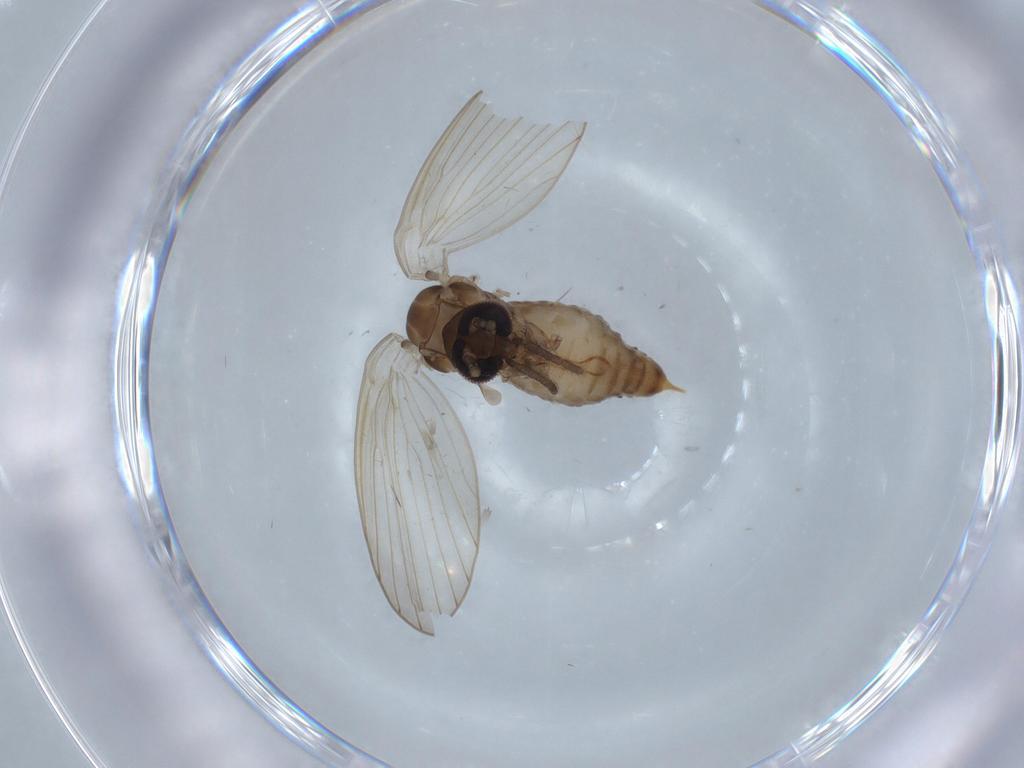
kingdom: Animalia
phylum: Arthropoda
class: Insecta
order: Diptera
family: Psychodidae
